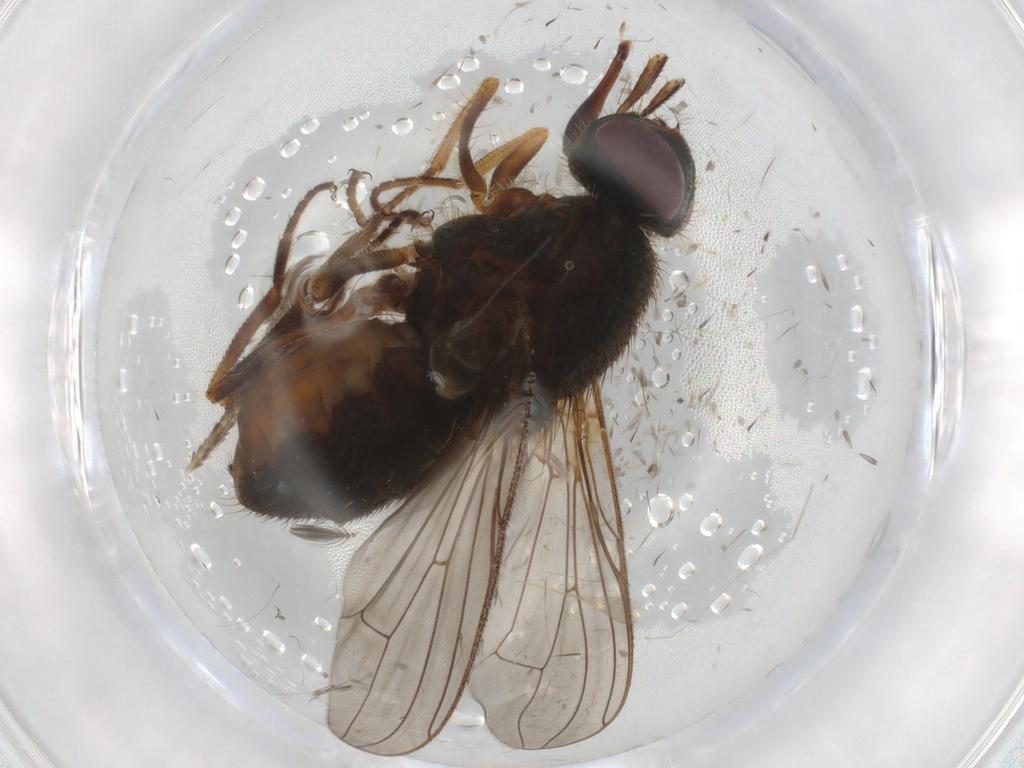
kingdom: Animalia
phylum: Arthropoda
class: Insecta
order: Diptera
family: Ceratopogonidae
